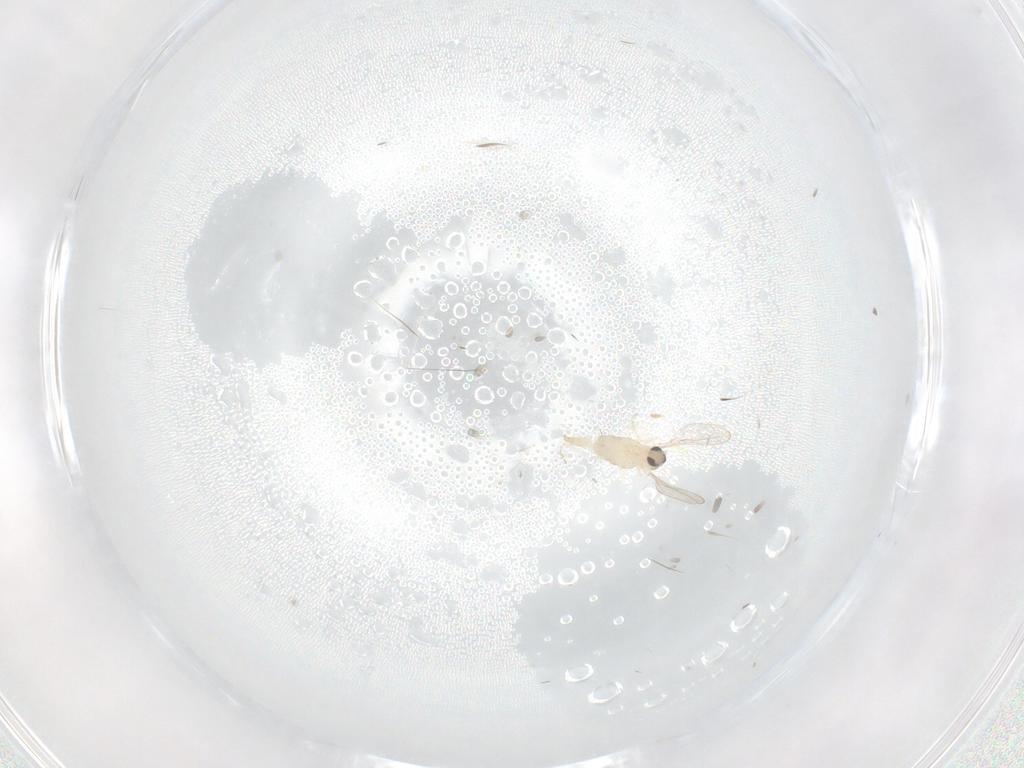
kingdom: Animalia
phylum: Arthropoda
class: Insecta
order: Diptera
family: Cecidomyiidae
